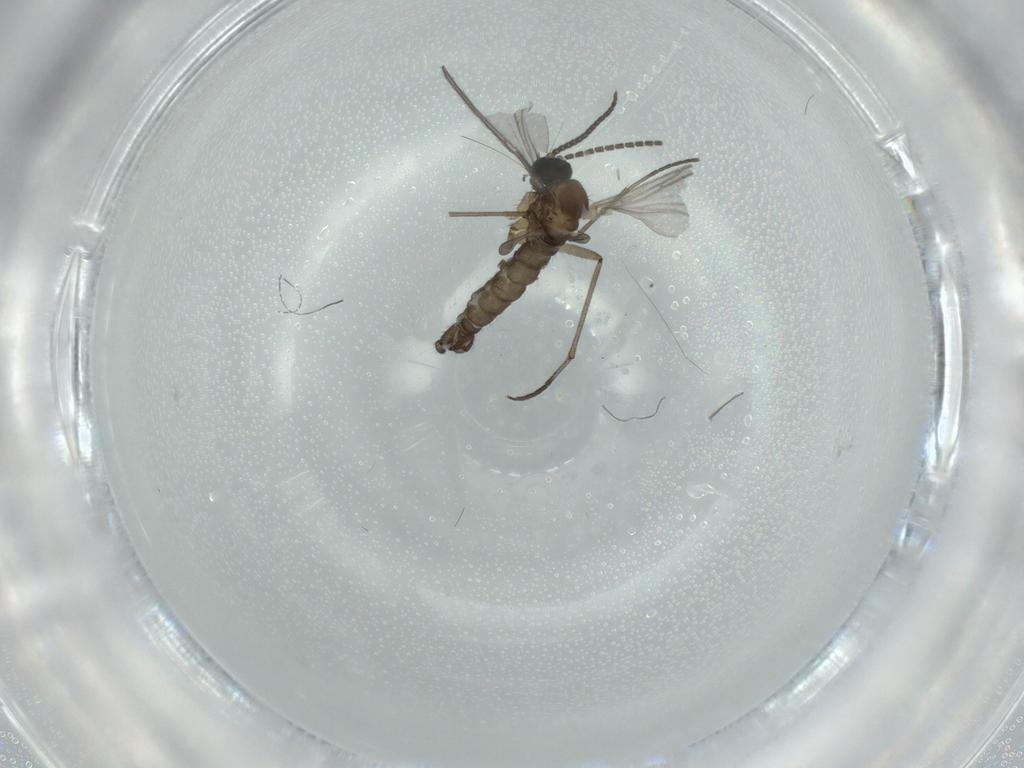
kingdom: Animalia
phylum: Arthropoda
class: Insecta
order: Diptera
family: Sciaridae
